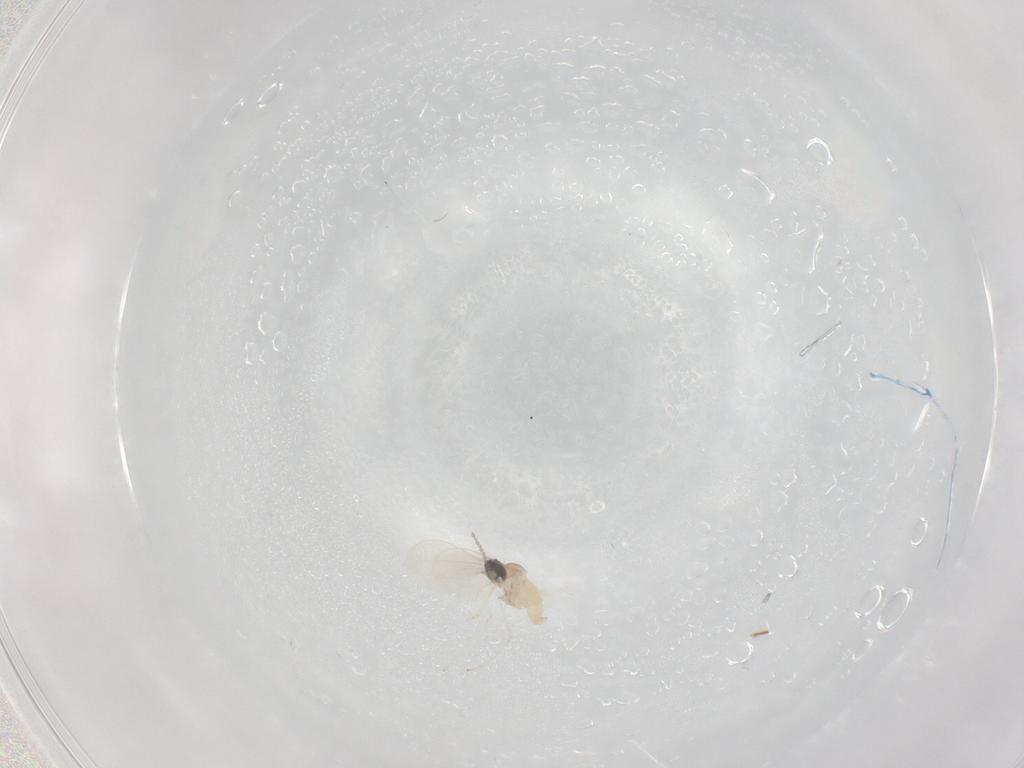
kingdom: Animalia
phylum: Arthropoda
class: Insecta
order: Diptera
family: Cecidomyiidae
